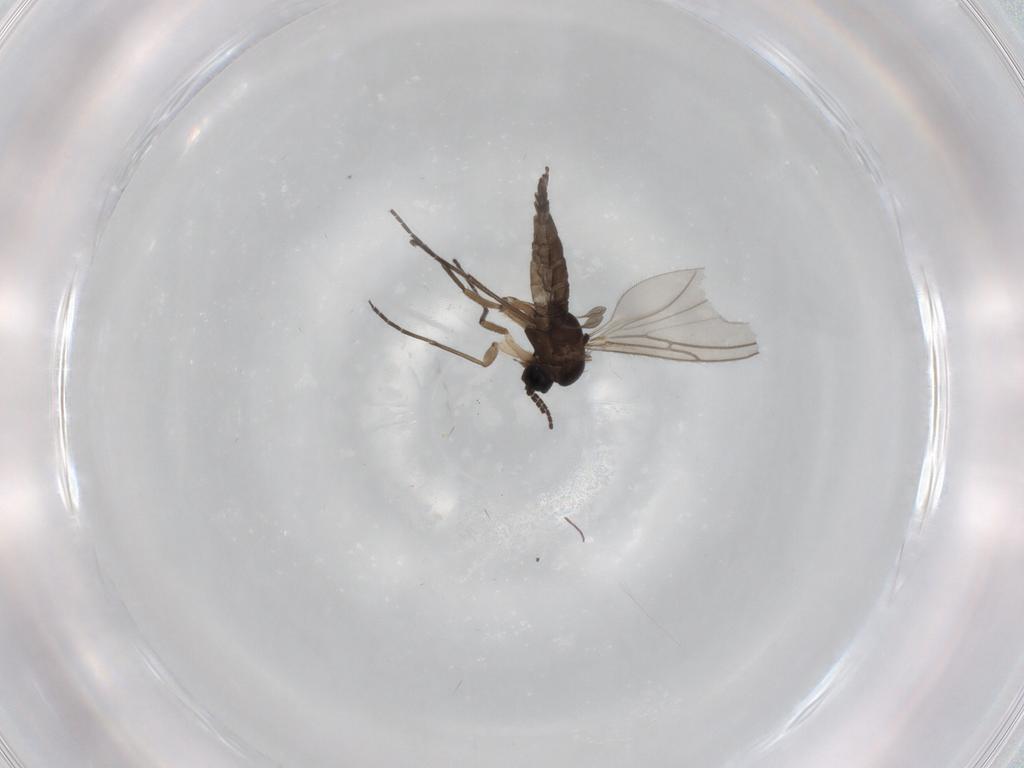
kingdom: Animalia
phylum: Arthropoda
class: Insecta
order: Diptera
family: Sciaridae
